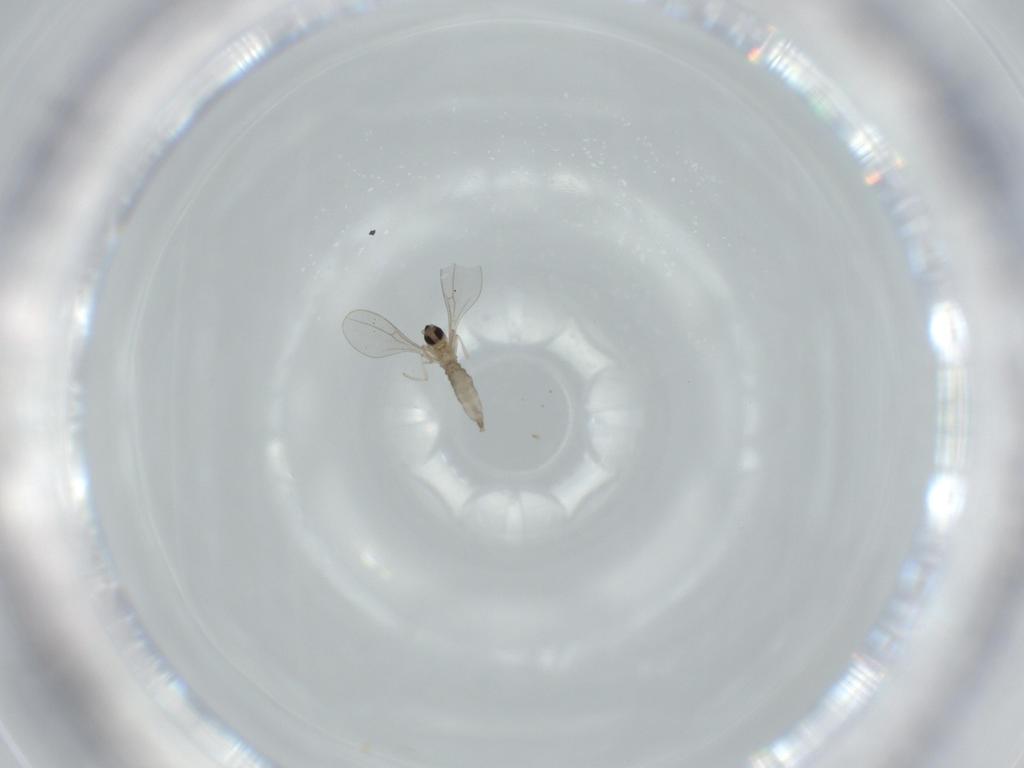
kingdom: Animalia
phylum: Arthropoda
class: Insecta
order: Diptera
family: Cecidomyiidae
